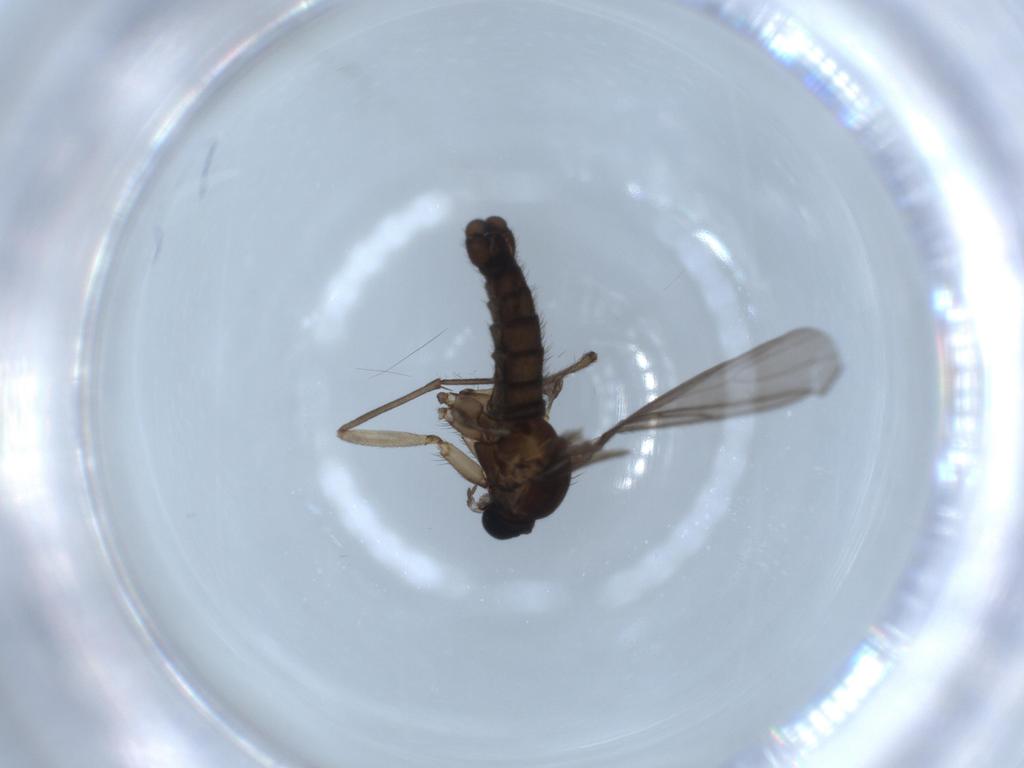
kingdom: Animalia
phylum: Arthropoda
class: Insecta
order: Diptera
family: Sciaridae
